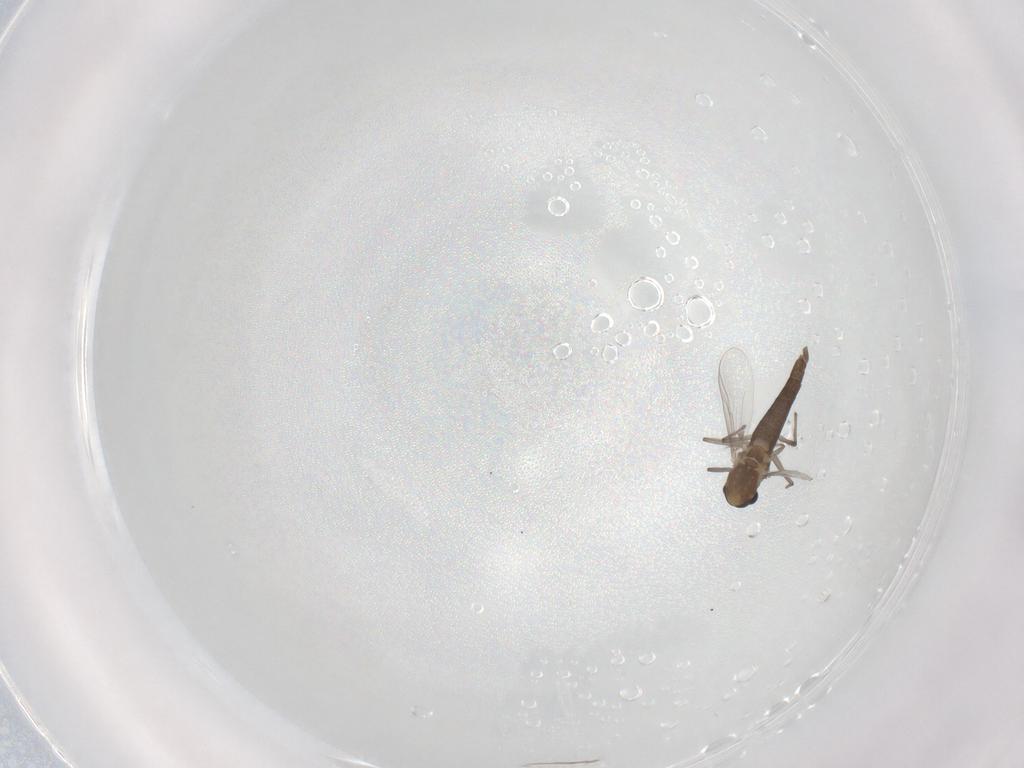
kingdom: Animalia
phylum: Arthropoda
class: Insecta
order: Diptera
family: Chironomidae
